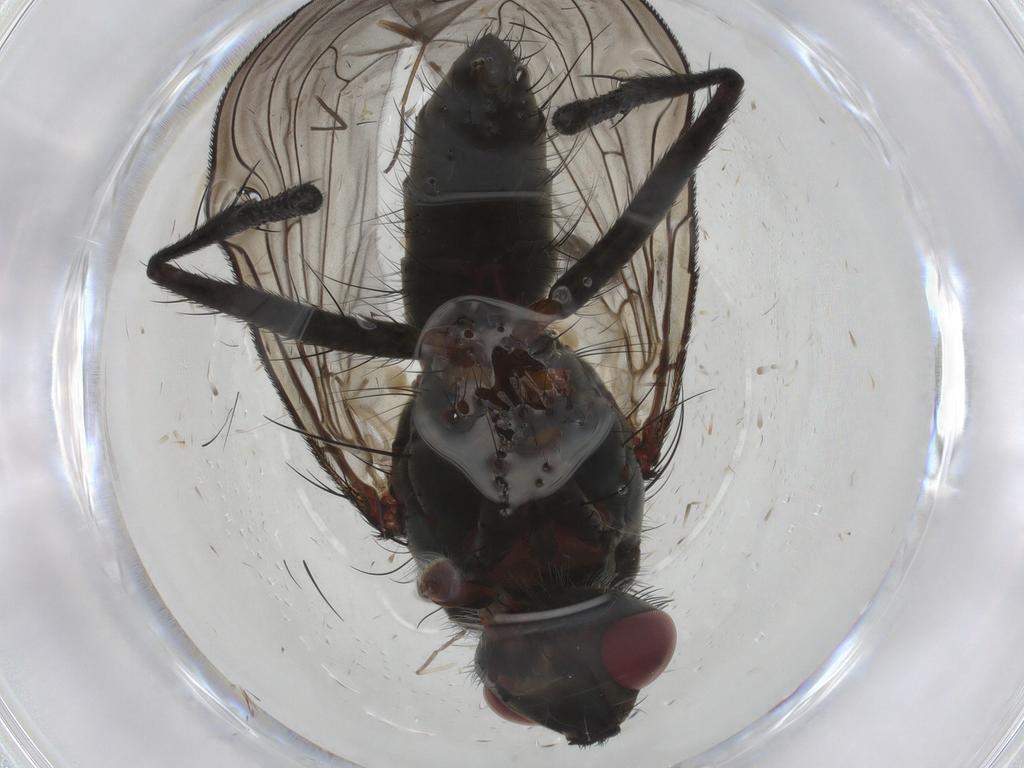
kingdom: Animalia
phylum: Arthropoda
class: Insecta
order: Diptera
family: Tachinidae
